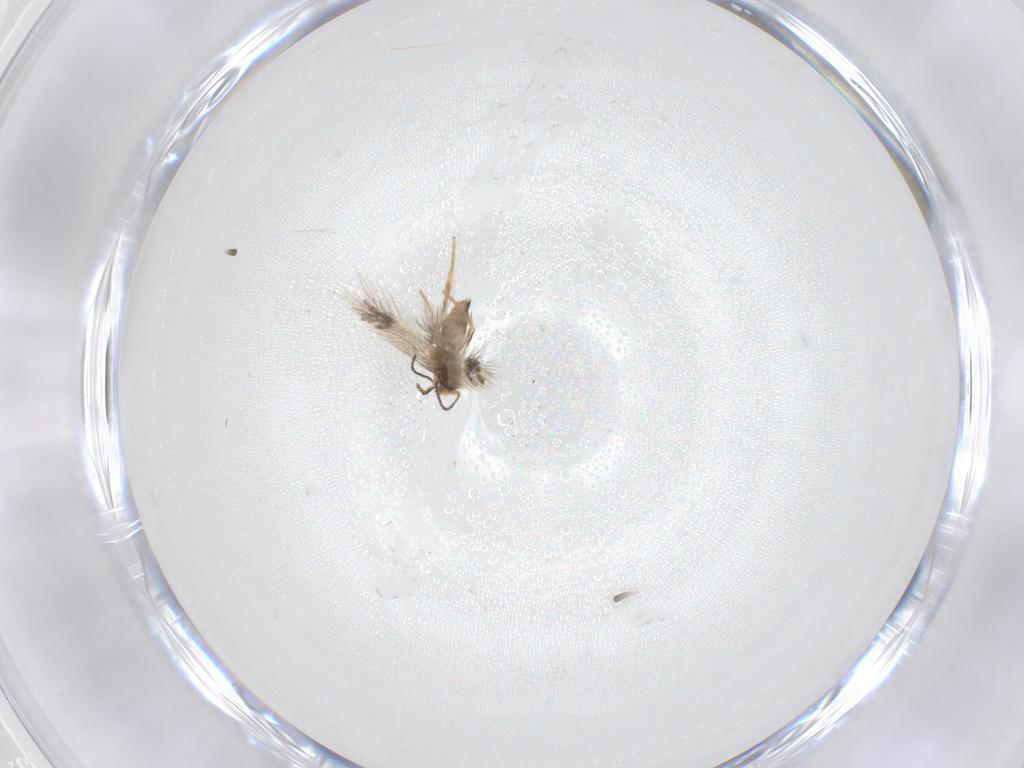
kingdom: Animalia
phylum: Arthropoda
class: Insecta
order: Lepidoptera
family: Nepticulidae
